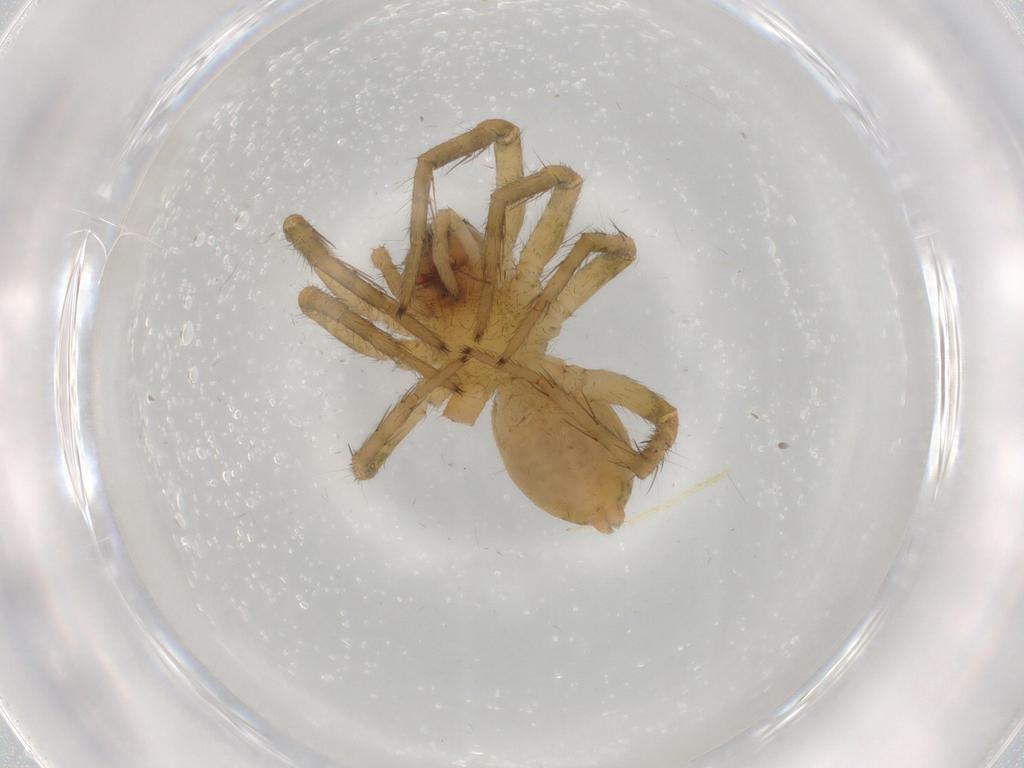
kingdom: Animalia
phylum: Arthropoda
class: Arachnida
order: Araneae
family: Lycosidae
